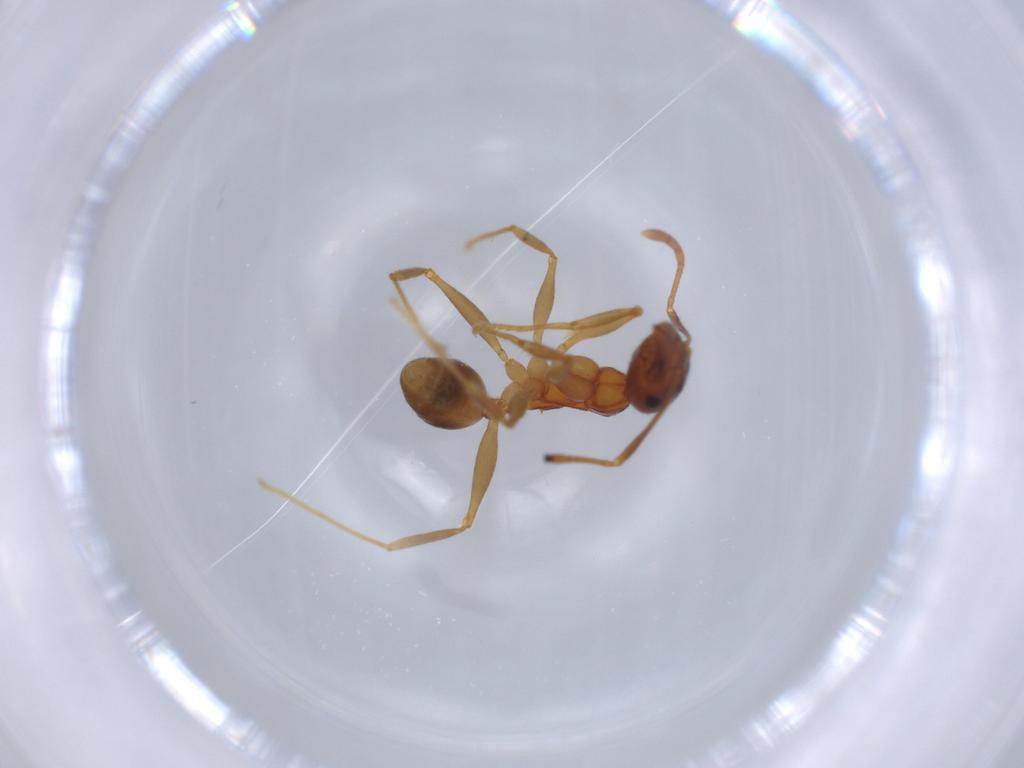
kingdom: Animalia
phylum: Arthropoda
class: Insecta
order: Hymenoptera
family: Formicidae
